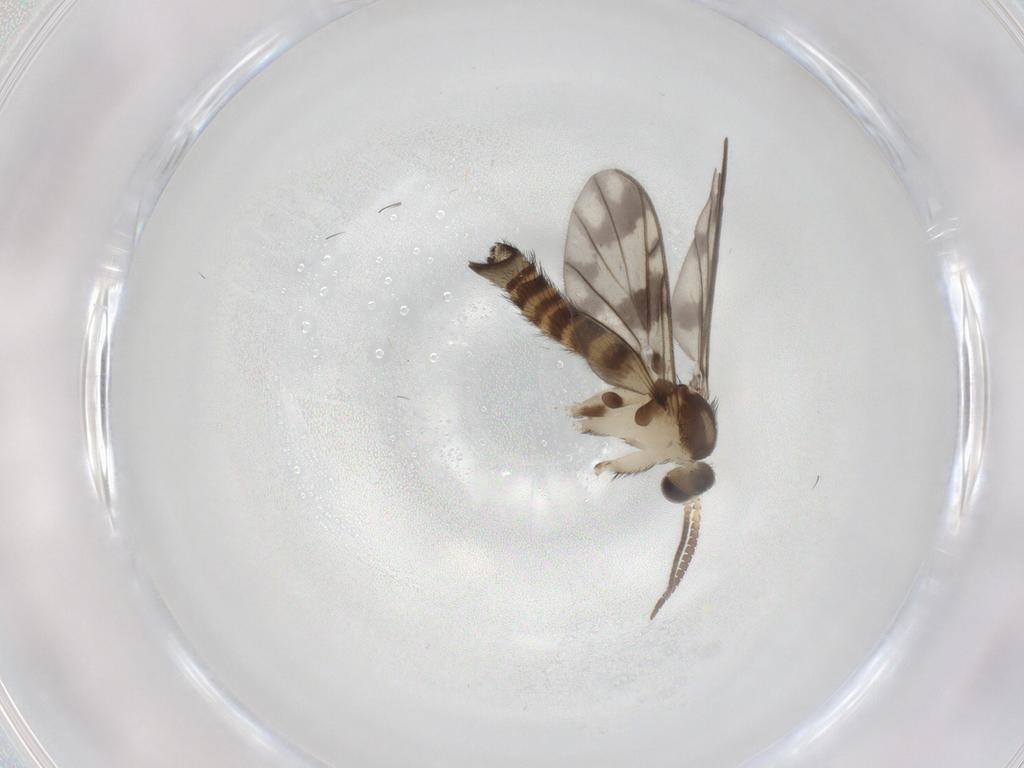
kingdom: Animalia
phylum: Arthropoda
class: Insecta
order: Diptera
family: Keroplatidae
